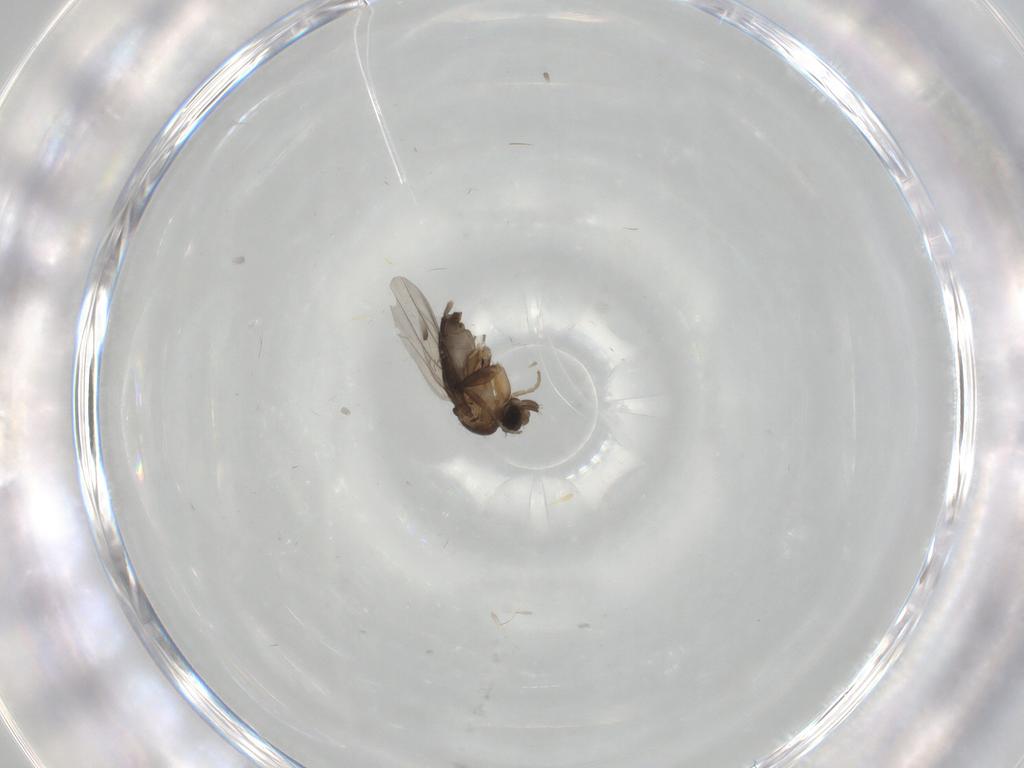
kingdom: Animalia
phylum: Arthropoda
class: Insecta
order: Diptera
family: Phoridae
